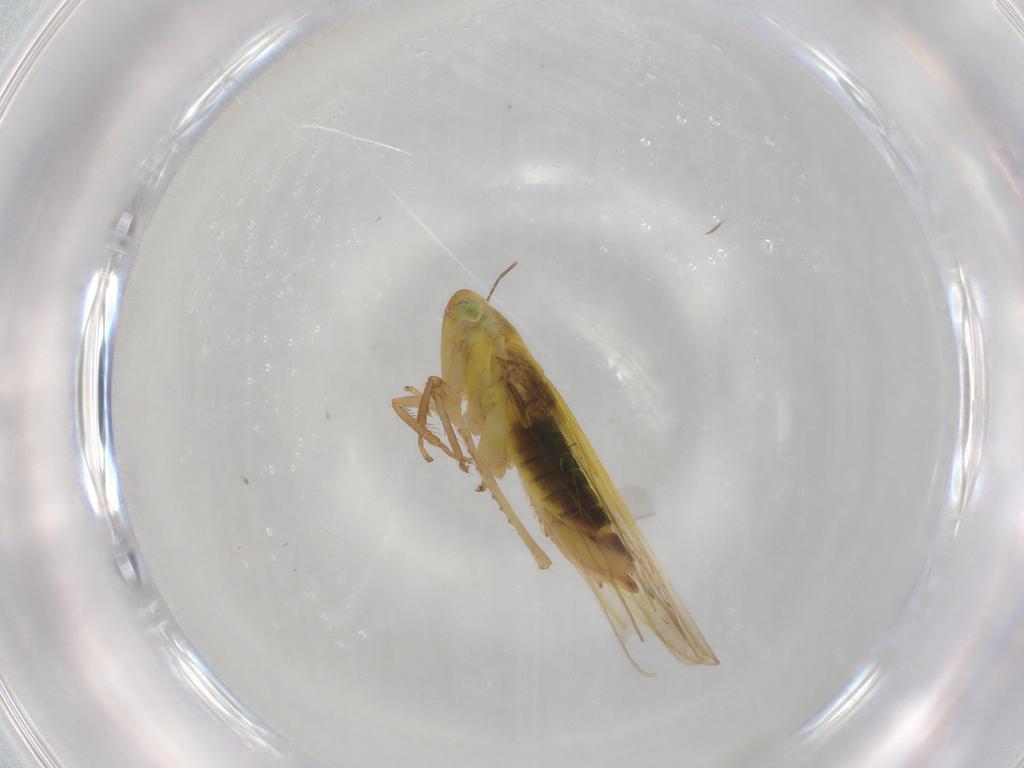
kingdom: Animalia
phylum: Arthropoda
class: Insecta
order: Hemiptera
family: Cicadellidae
